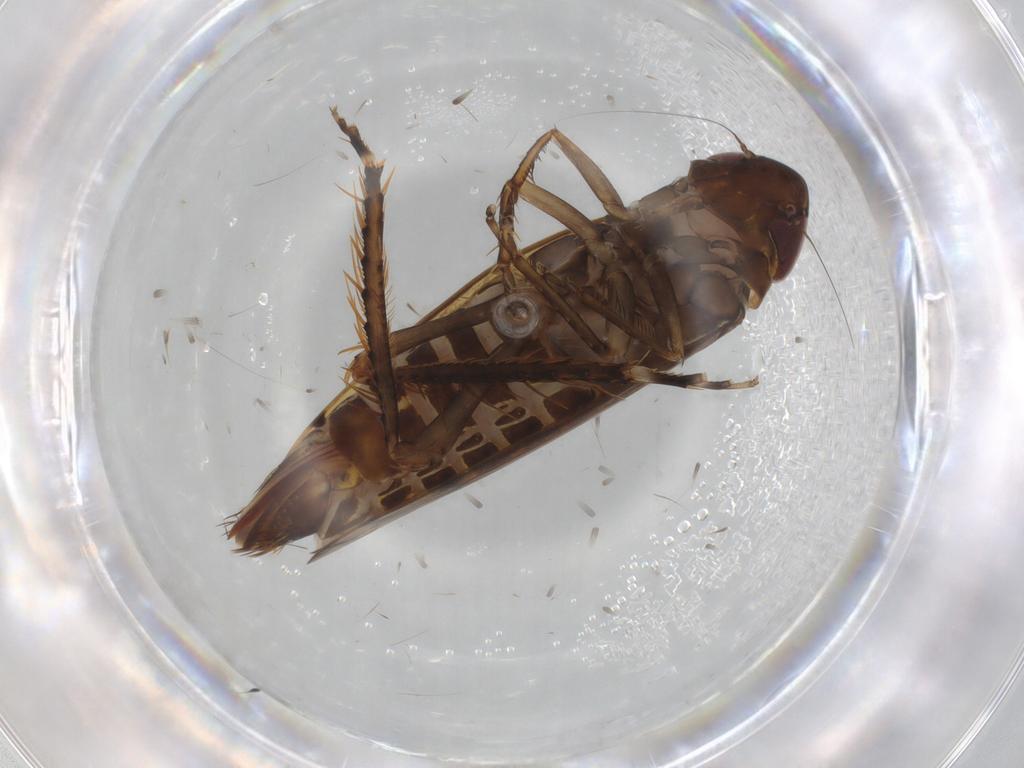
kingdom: Animalia
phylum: Arthropoda
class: Insecta
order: Hemiptera
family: Cicadellidae
